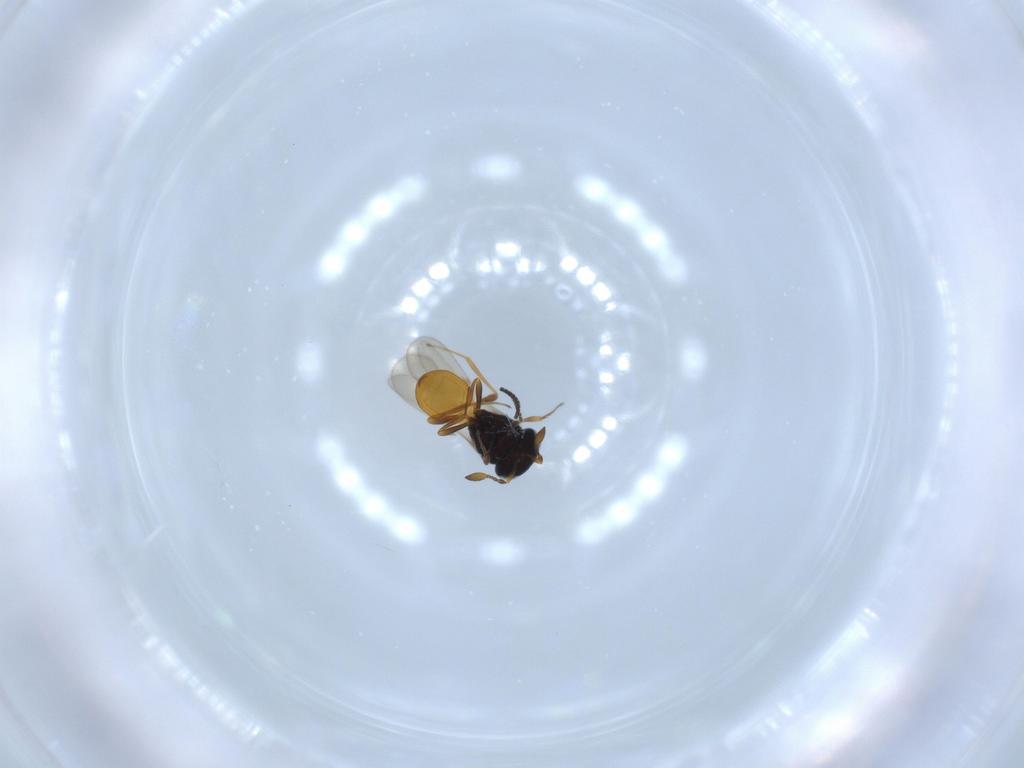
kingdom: Animalia
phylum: Arthropoda
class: Insecta
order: Hymenoptera
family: Scelionidae
